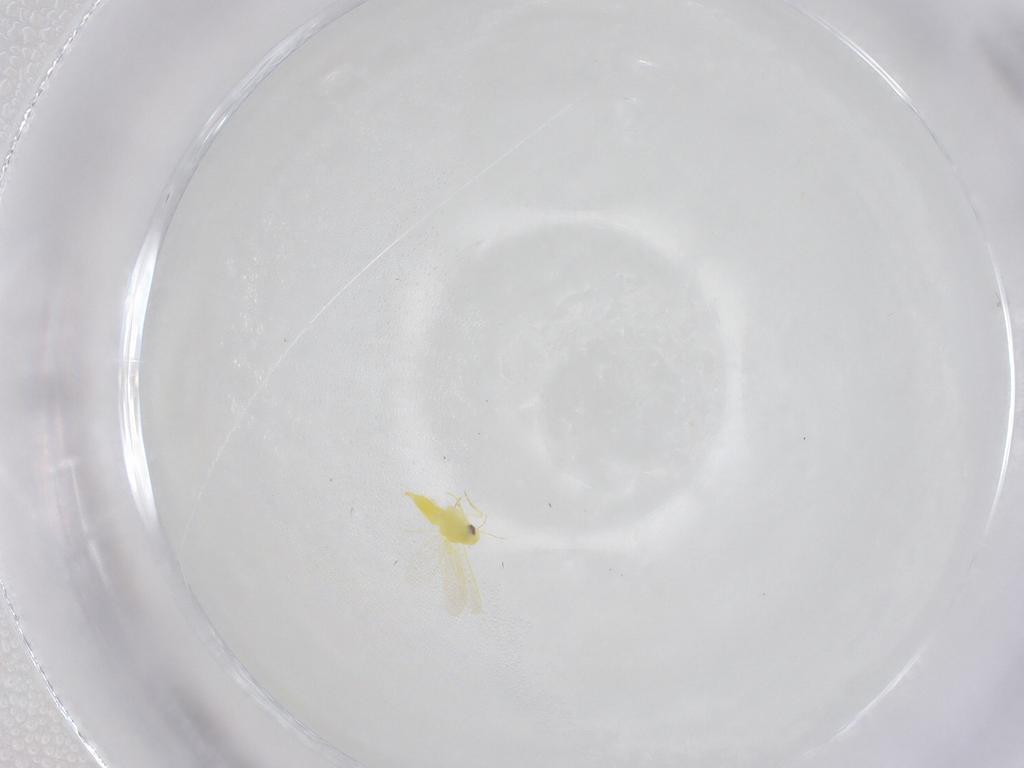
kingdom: Animalia
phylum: Arthropoda
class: Insecta
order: Hemiptera
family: Aleyrodidae
